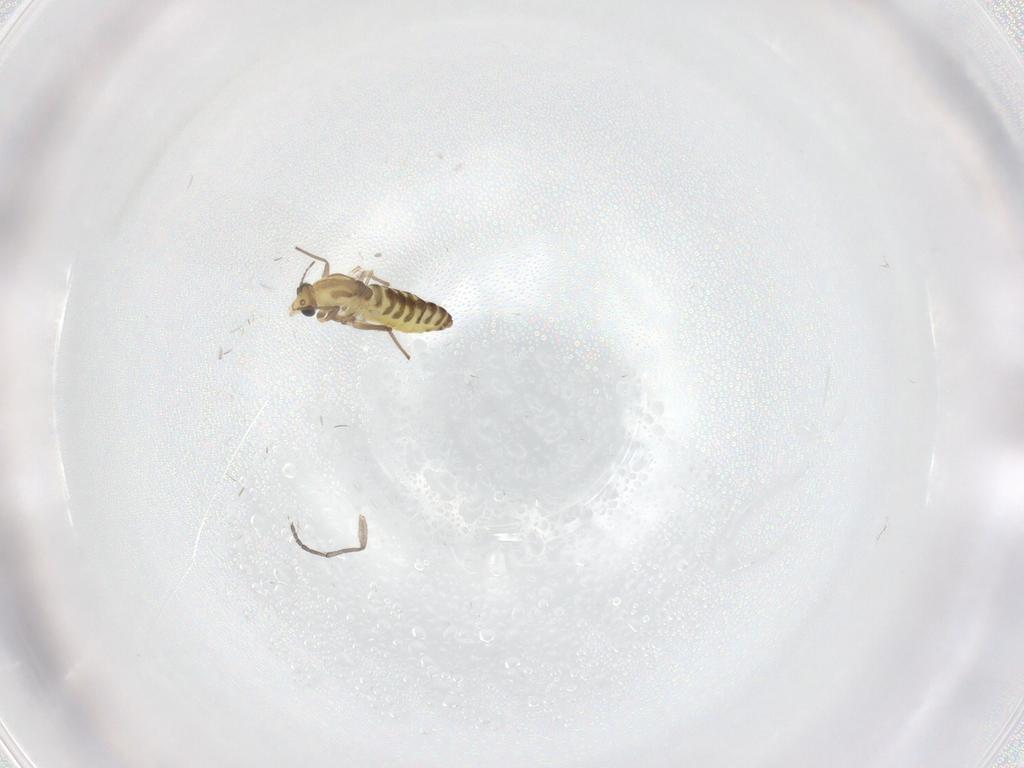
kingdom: Animalia
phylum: Arthropoda
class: Insecta
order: Diptera
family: Chironomidae
